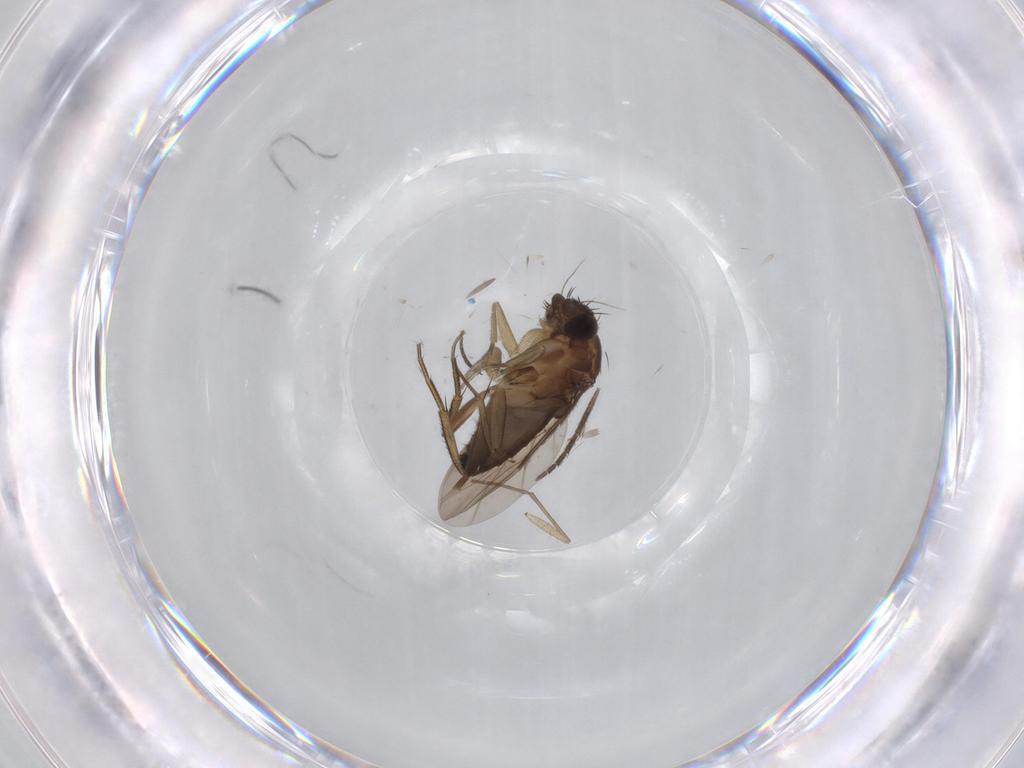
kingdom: Animalia
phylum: Arthropoda
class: Insecta
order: Diptera
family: Phoridae
